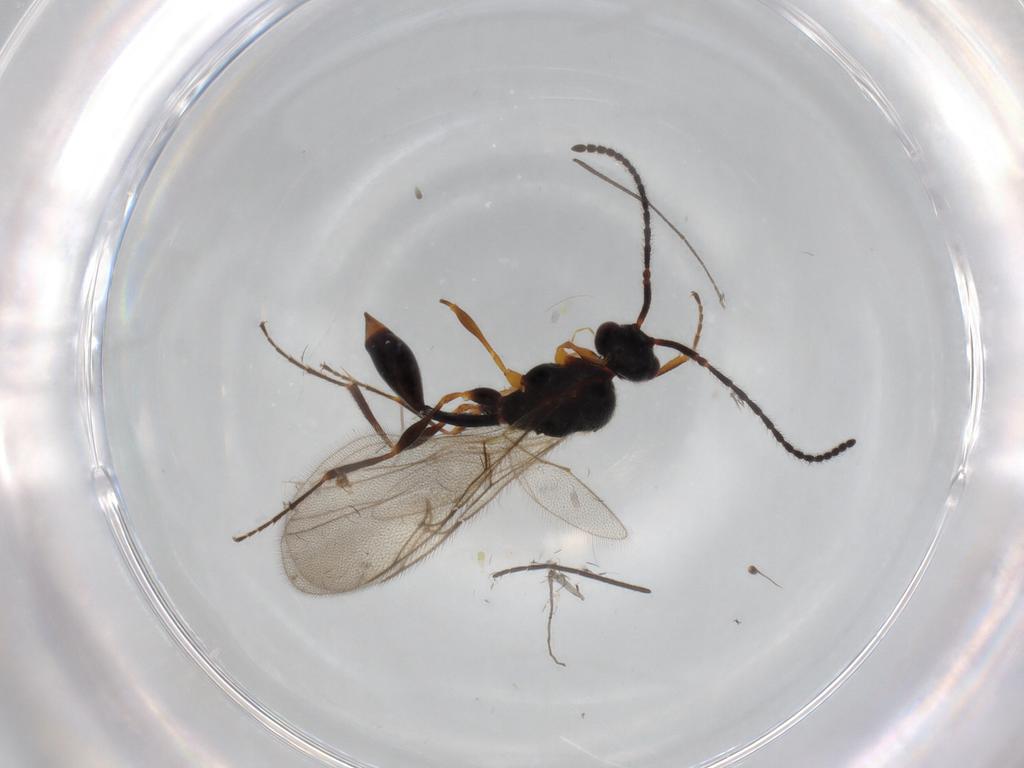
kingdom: Animalia
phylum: Arthropoda
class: Insecta
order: Hymenoptera
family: Diapriidae
